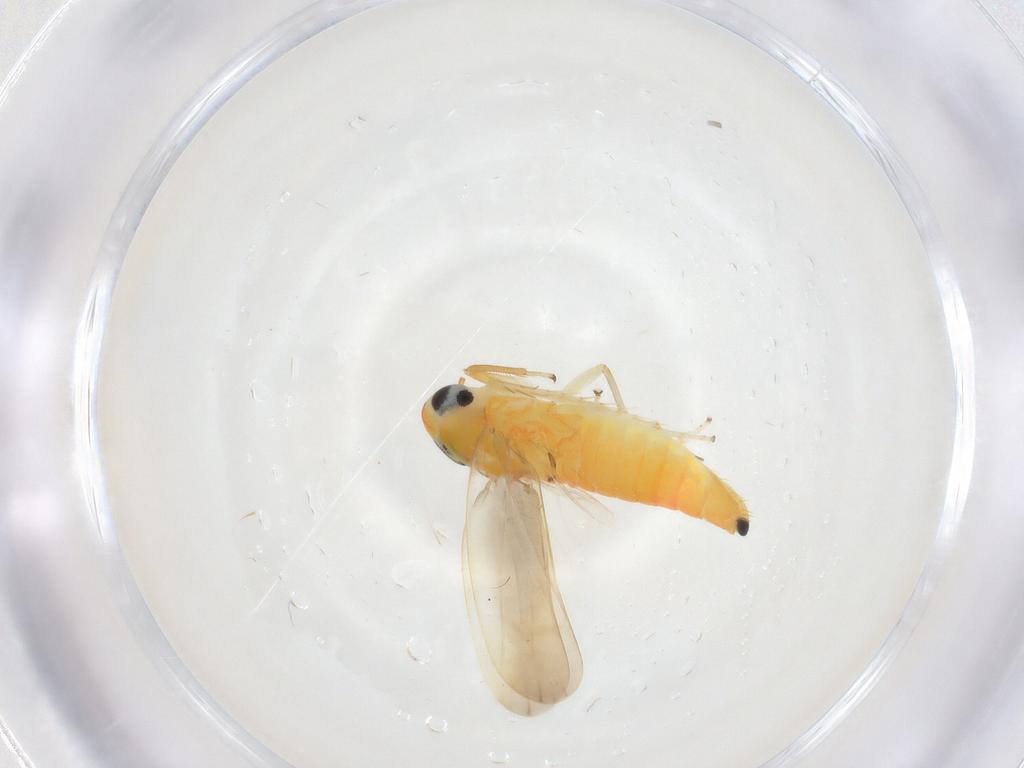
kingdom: Animalia
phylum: Arthropoda
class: Insecta
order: Hemiptera
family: Cicadellidae
